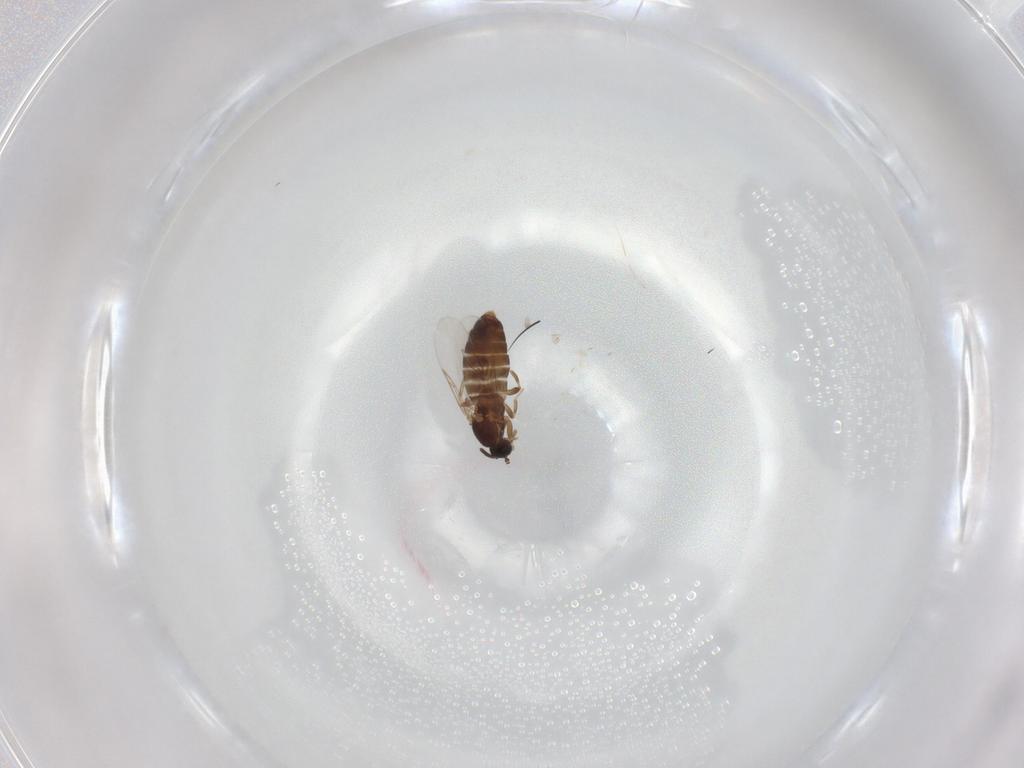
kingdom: Animalia
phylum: Arthropoda
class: Insecta
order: Diptera
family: Scatopsidae
